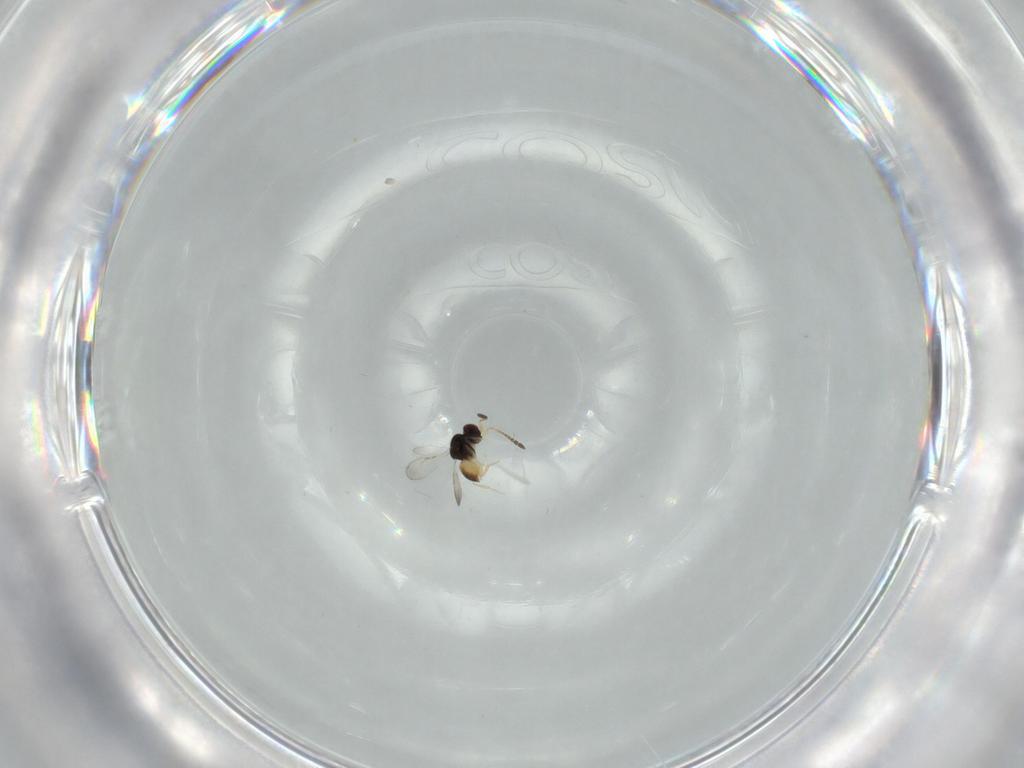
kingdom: Animalia
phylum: Arthropoda
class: Insecta
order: Hymenoptera
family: Ceraphronidae
